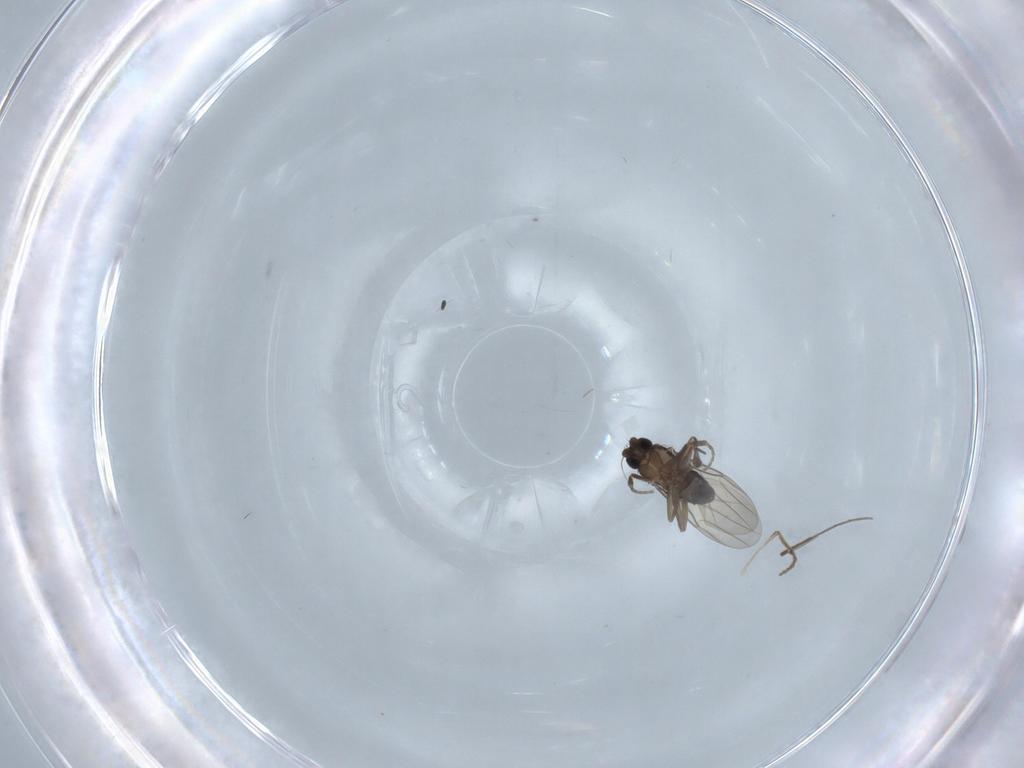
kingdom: Animalia
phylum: Arthropoda
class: Insecta
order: Diptera
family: Phoridae
